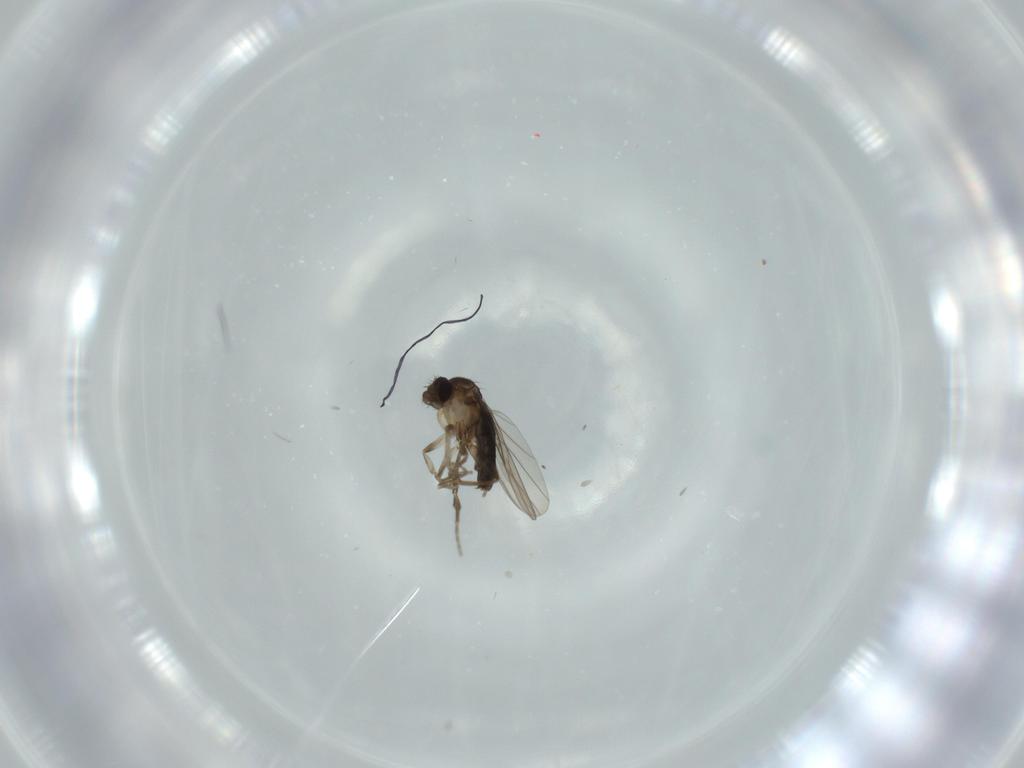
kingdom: Animalia
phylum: Arthropoda
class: Insecta
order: Diptera
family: Phoridae
